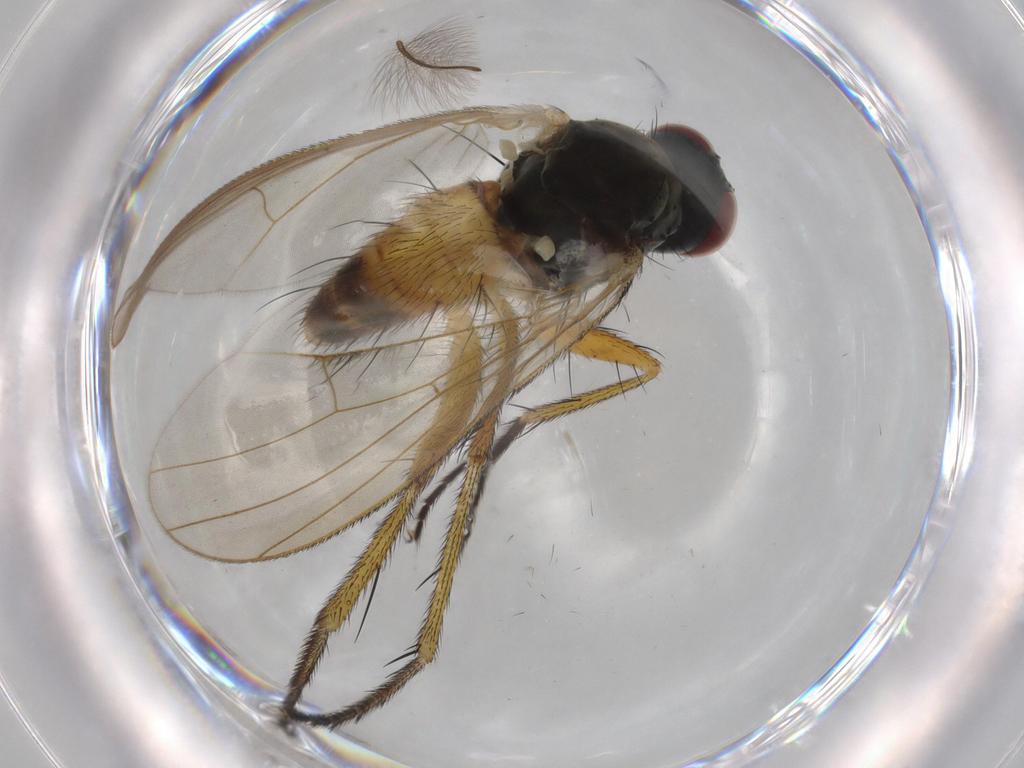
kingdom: Animalia
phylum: Arthropoda
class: Insecta
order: Diptera
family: Muscidae
